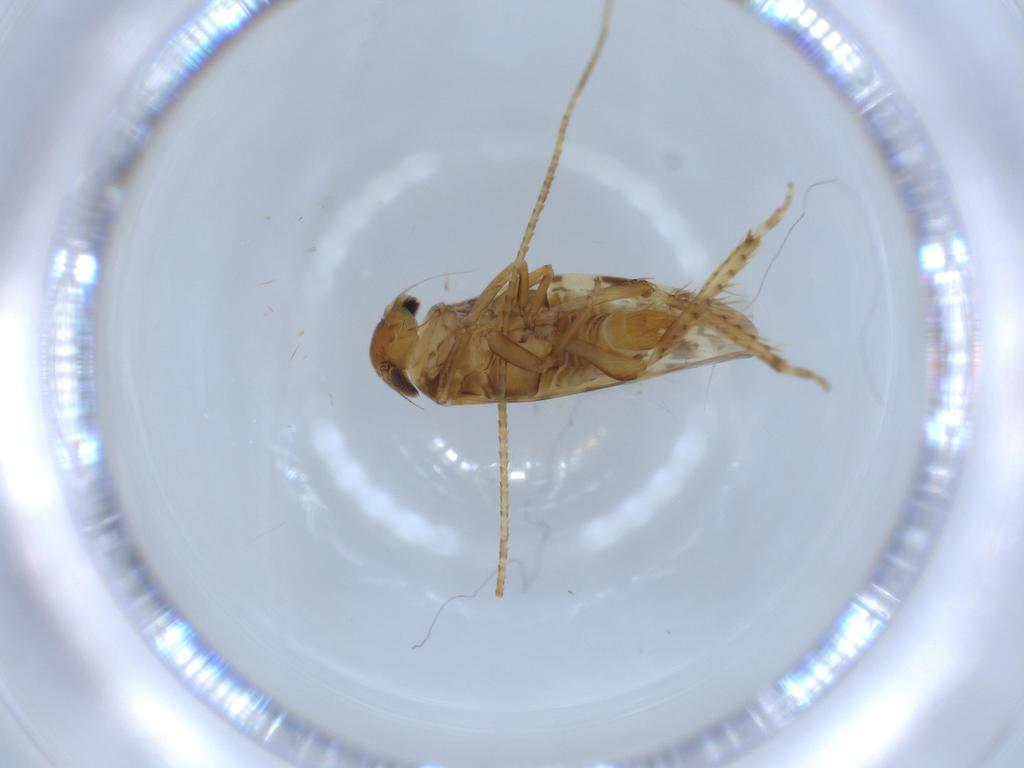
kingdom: Animalia
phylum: Arthropoda
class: Insecta
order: Hemiptera
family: Cicadellidae
